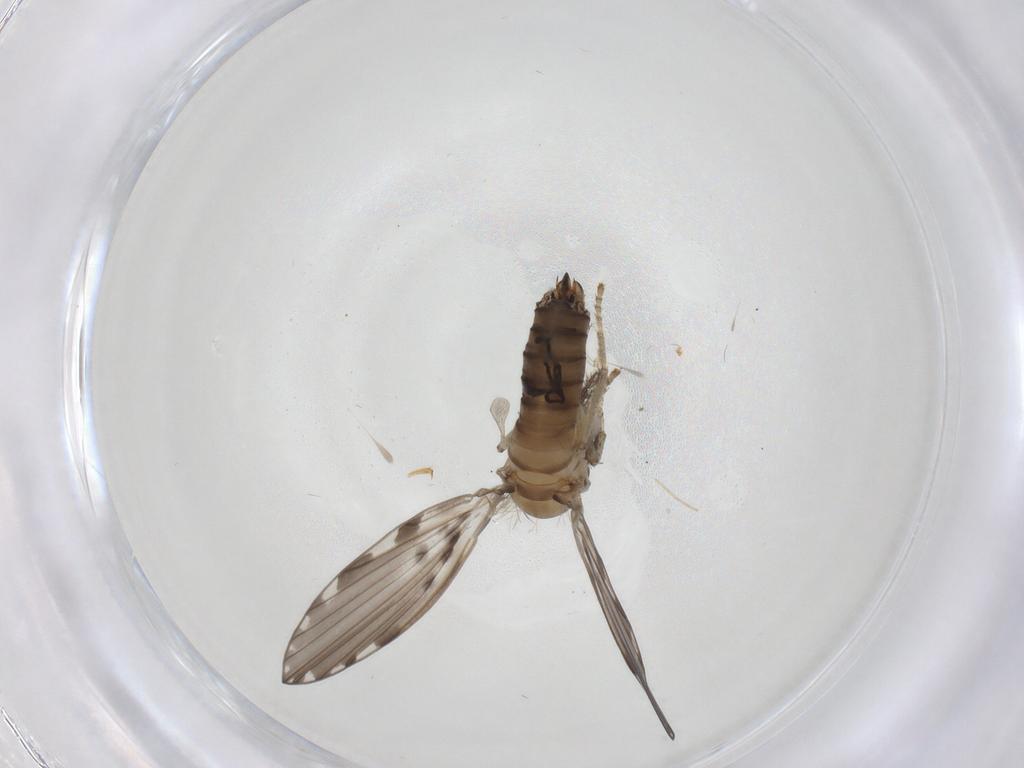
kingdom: Animalia
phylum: Arthropoda
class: Insecta
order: Diptera
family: Psychodidae
